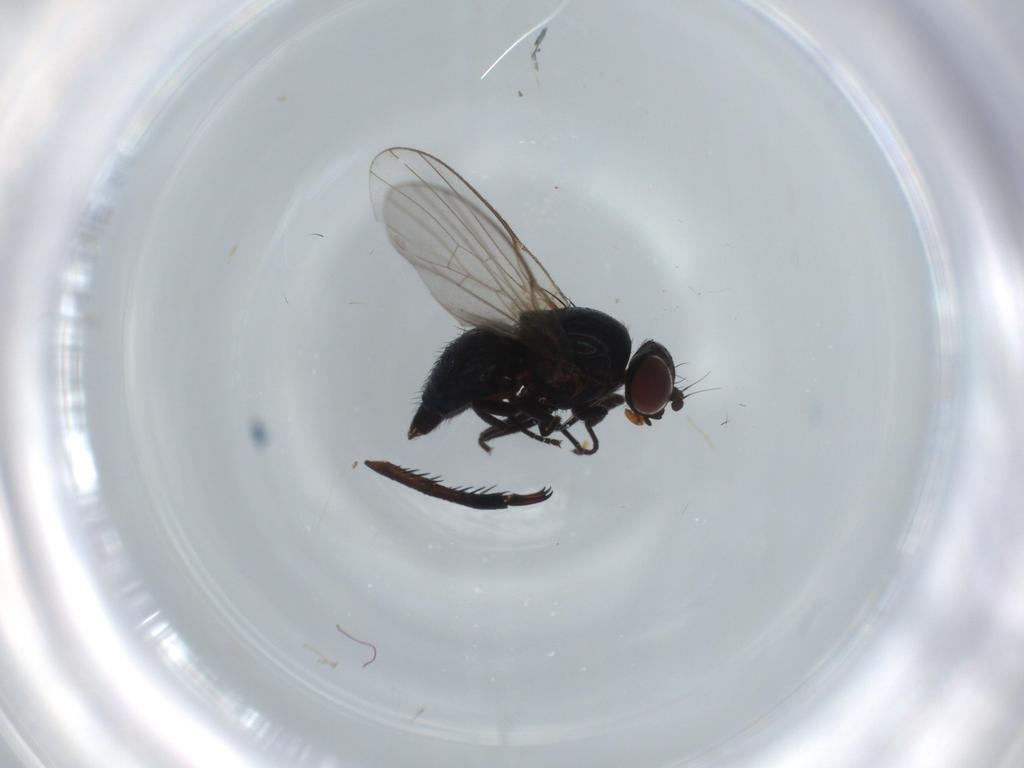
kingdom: Animalia
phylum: Arthropoda
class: Insecta
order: Diptera
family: Agromyzidae
